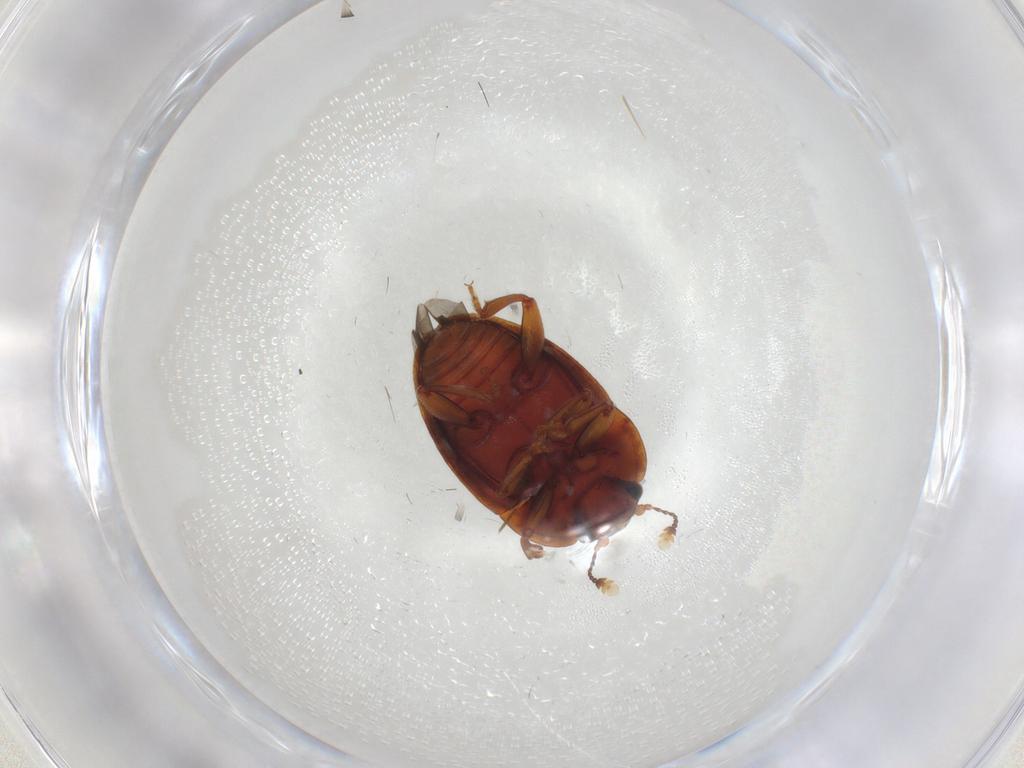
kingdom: Animalia
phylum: Arthropoda
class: Insecta
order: Coleoptera
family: Nitidulidae
